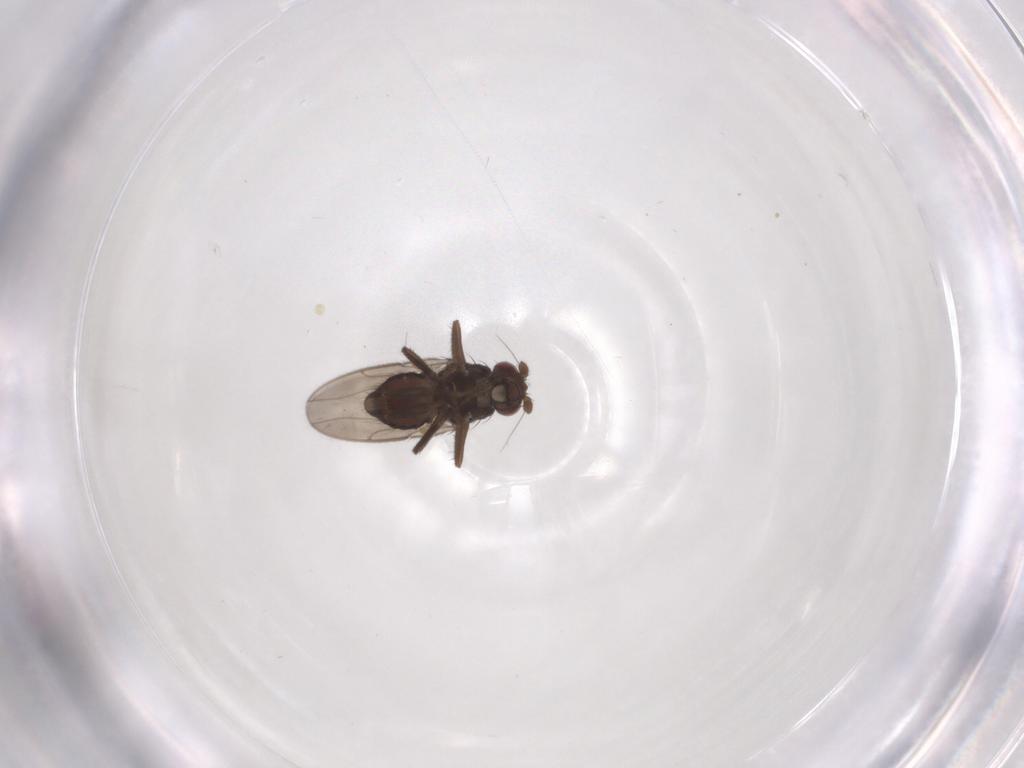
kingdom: Animalia
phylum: Arthropoda
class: Insecta
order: Diptera
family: Sphaeroceridae
